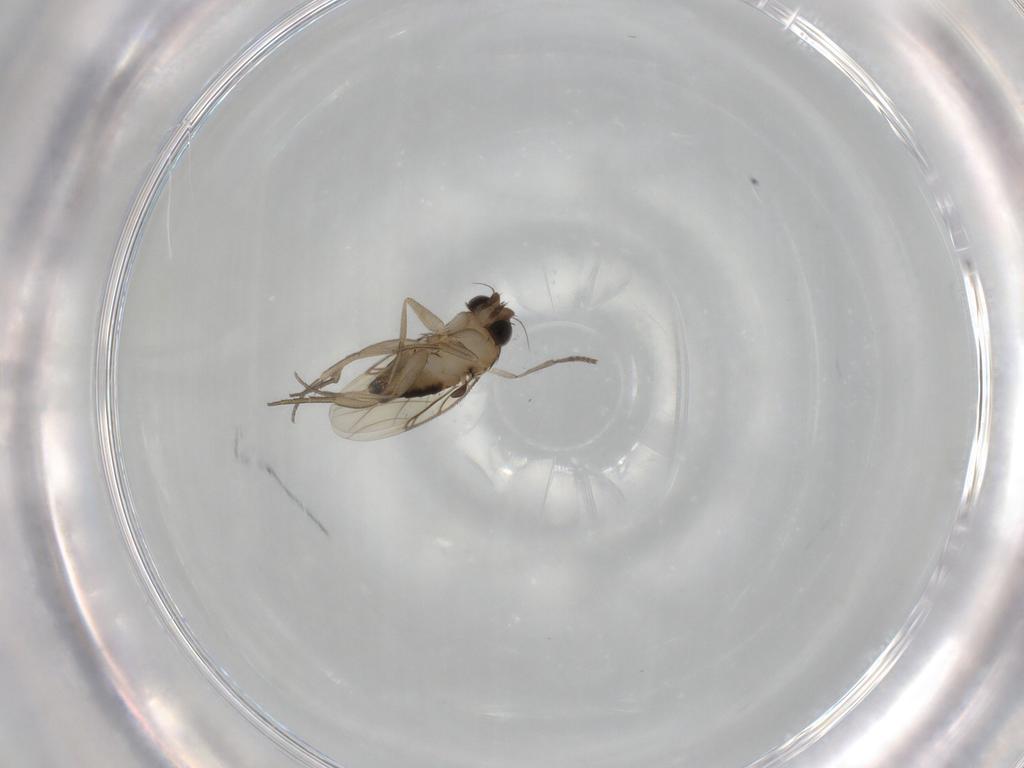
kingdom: Animalia
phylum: Arthropoda
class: Insecta
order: Diptera
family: Phoridae
